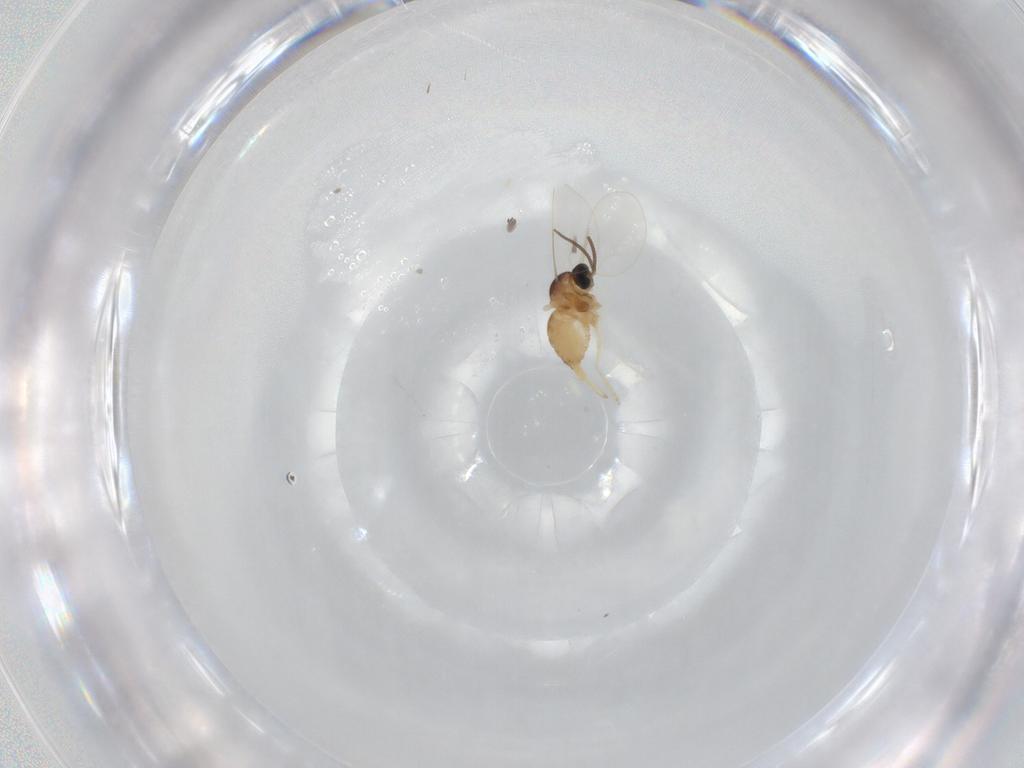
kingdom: Animalia
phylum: Arthropoda
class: Insecta
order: Diptera
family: Cecidomyiidae
